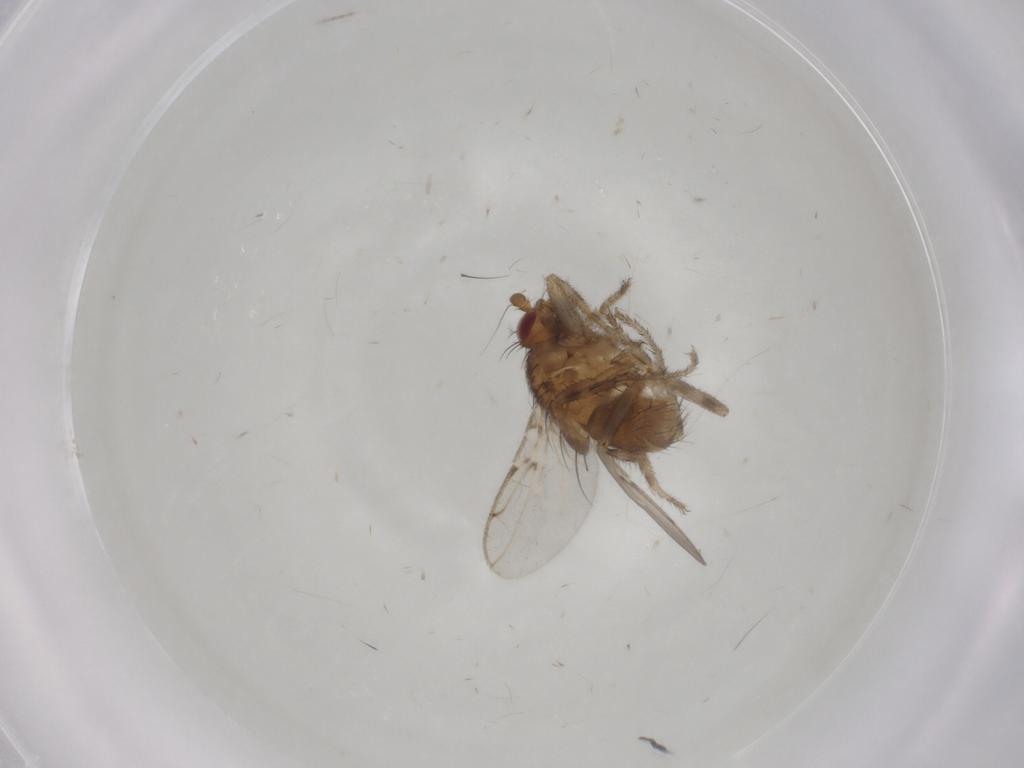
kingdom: Animalia
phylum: Arthropoda
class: Insecta
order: Diptera
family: Sphaeroceridae
